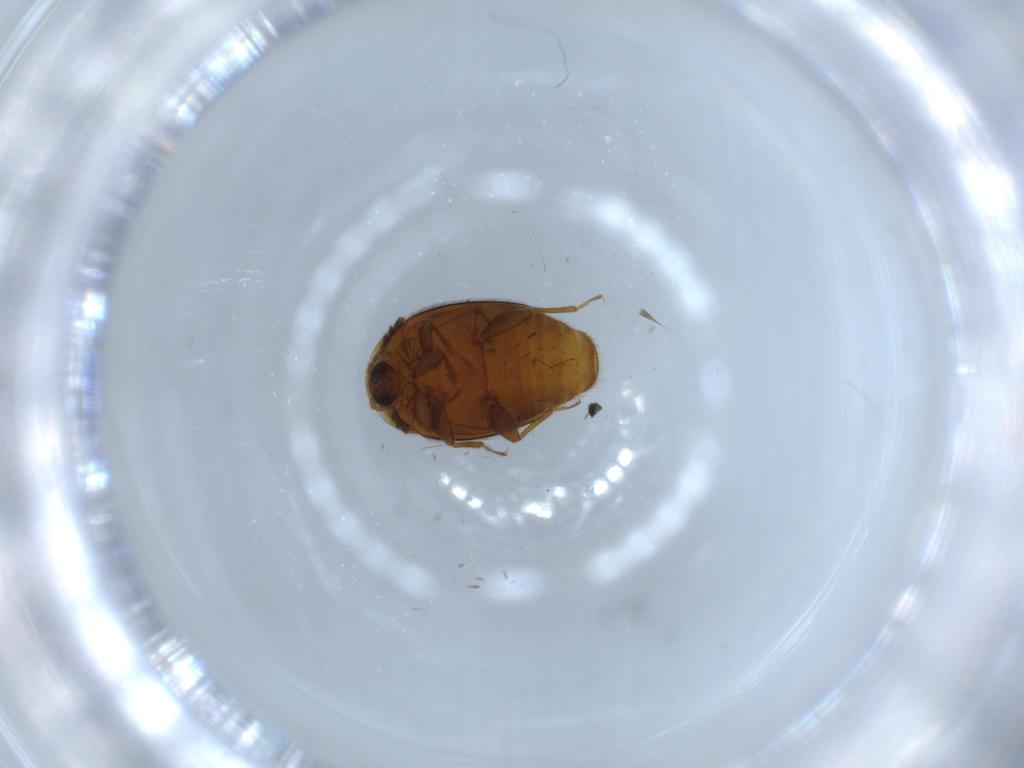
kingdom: Animalia
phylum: Arthropoda
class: Insecta
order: Coleoptera
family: Corylophidae
